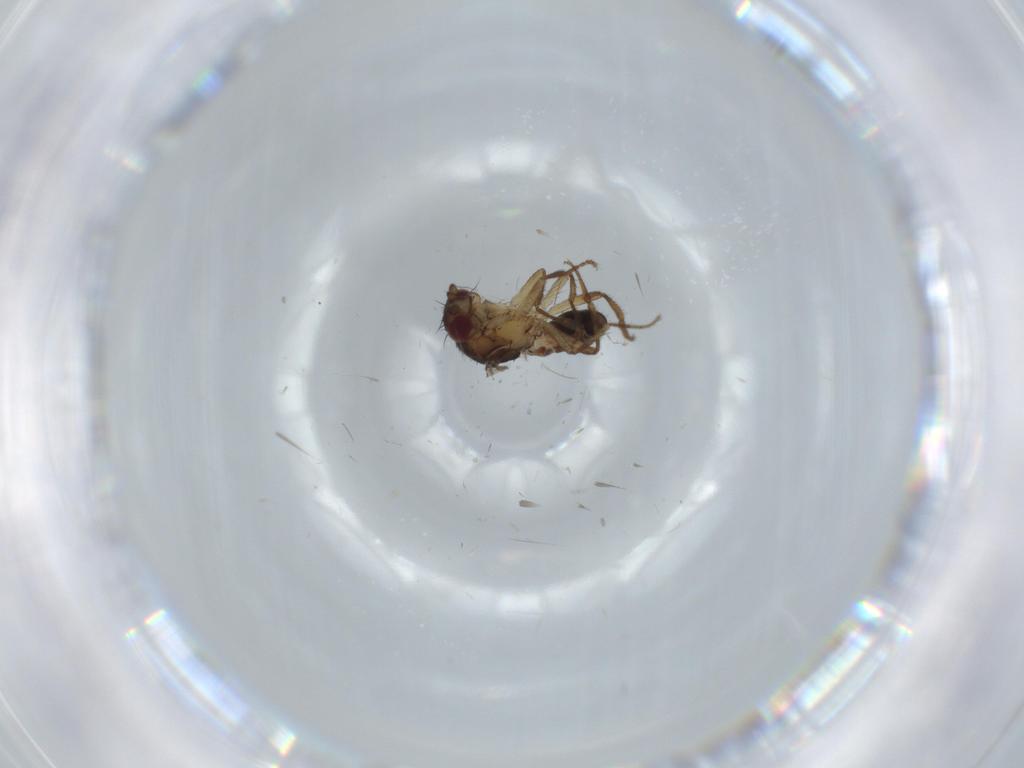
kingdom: Animalia
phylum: Arthropoda
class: Insecta
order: Diptera
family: Sphaeroceridae
